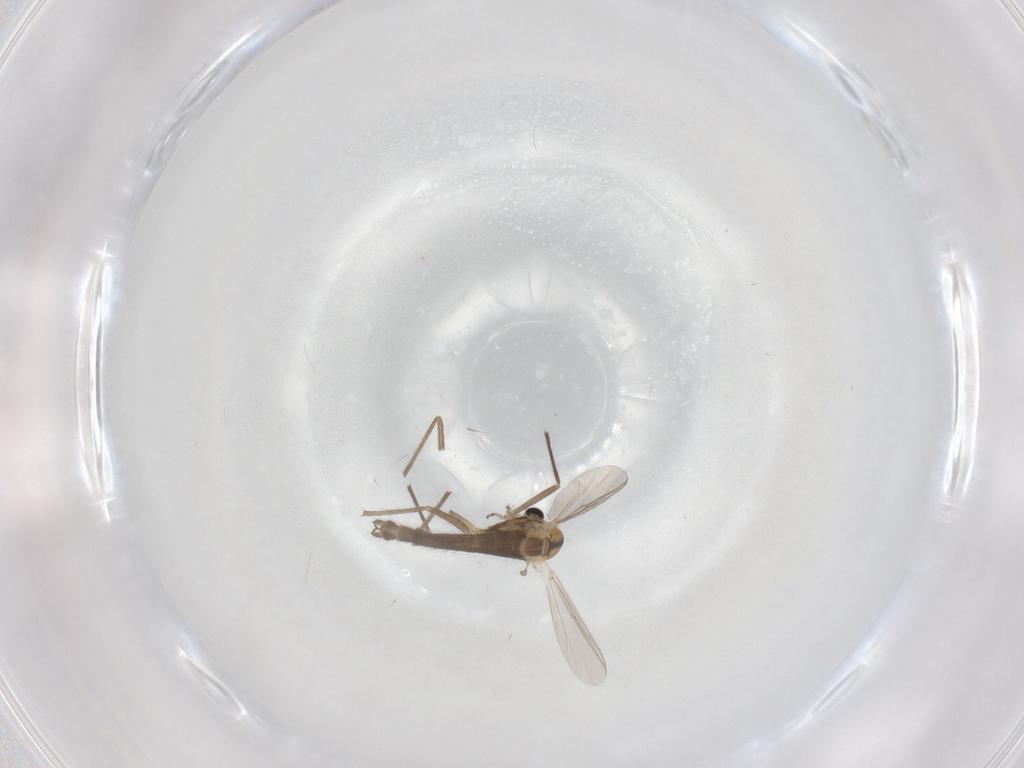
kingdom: Animalia
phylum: Arthropoda
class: Insecta
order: Diptera
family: Chironomidae
